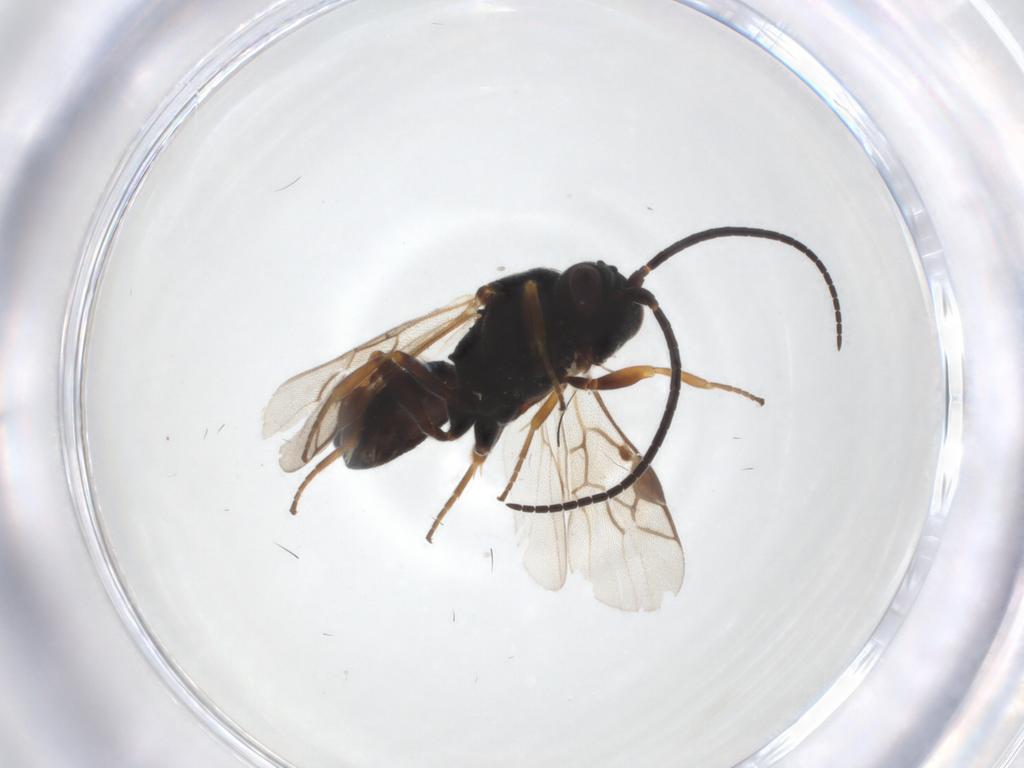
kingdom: Animalia
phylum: Arthropoda
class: Insecta
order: Hymenoptera
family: Braconidae
